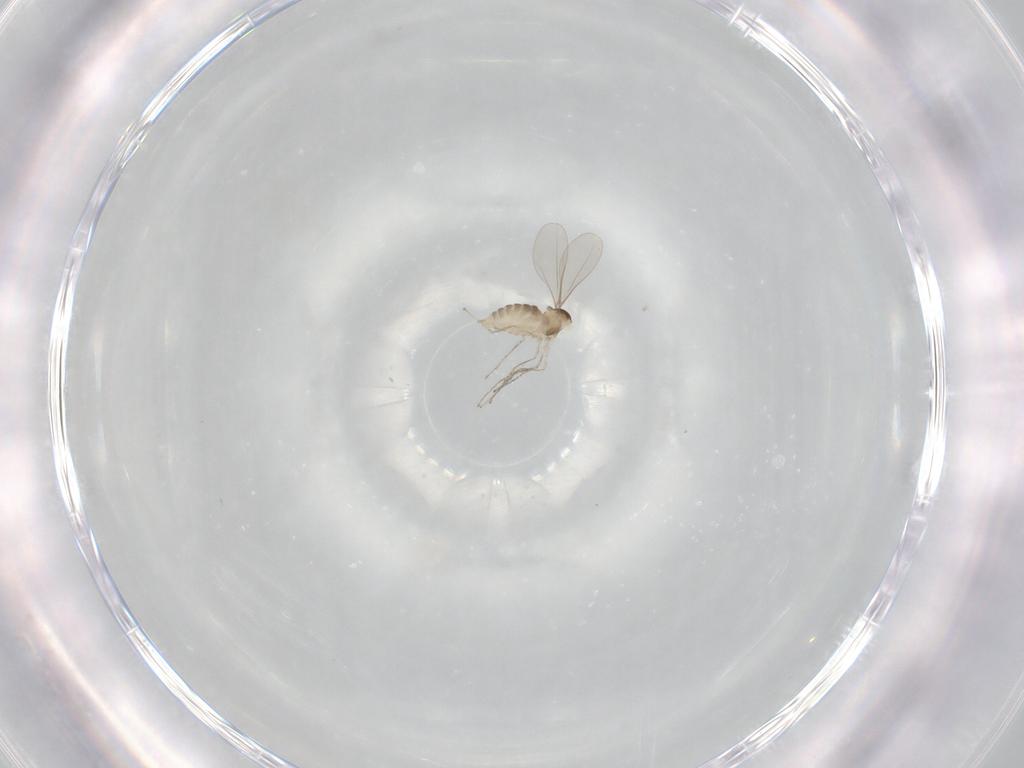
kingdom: Animalia
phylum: Arthropoda
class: Insecta
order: Diptera
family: Cecidomyiidae
